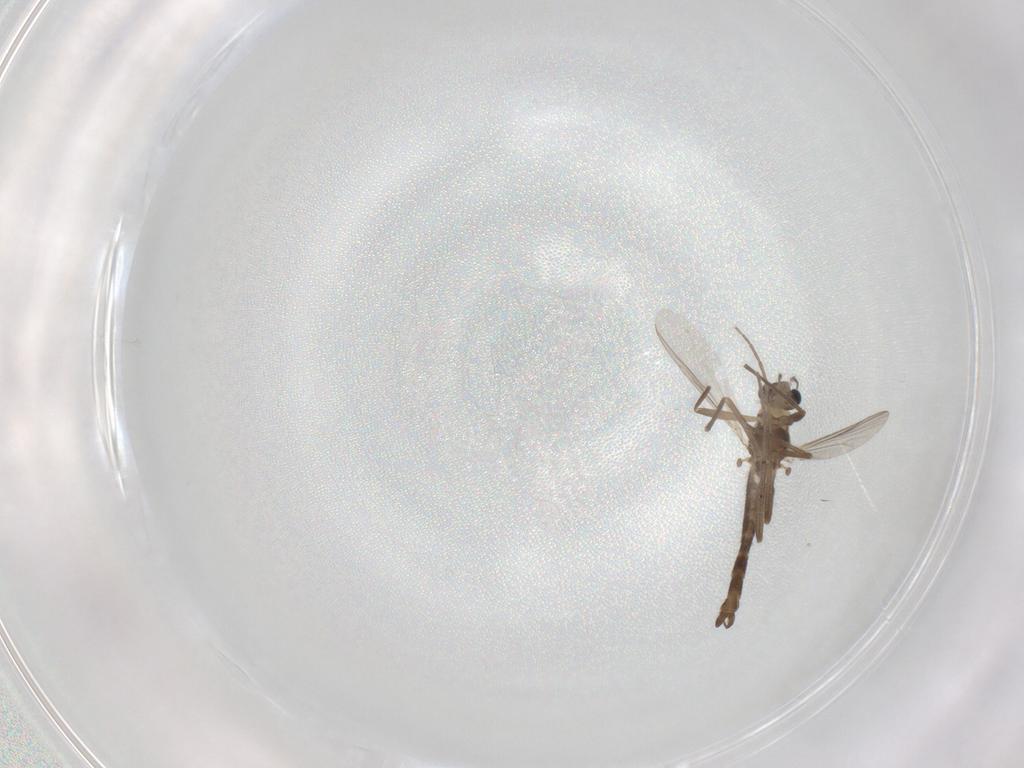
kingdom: Animalia
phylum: Arthropoda
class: Insecta
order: Diptera
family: Chironomidae
